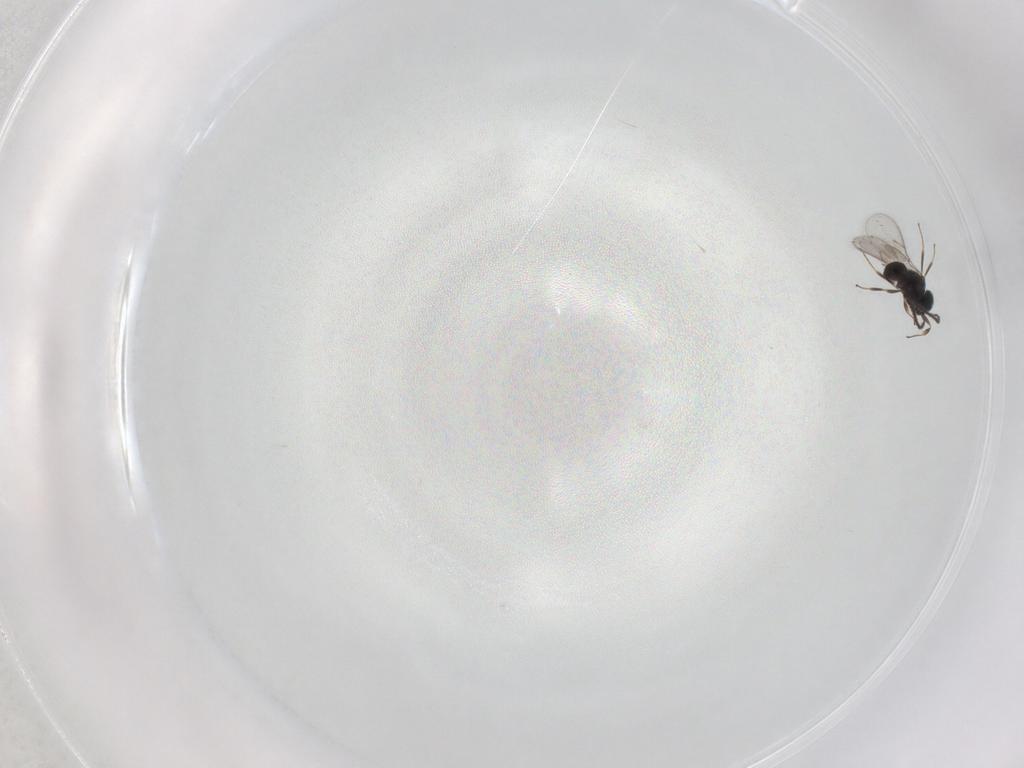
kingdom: Animalia
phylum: Arthropoda
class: Insecta
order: Hymenoptera
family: Scelionidae
